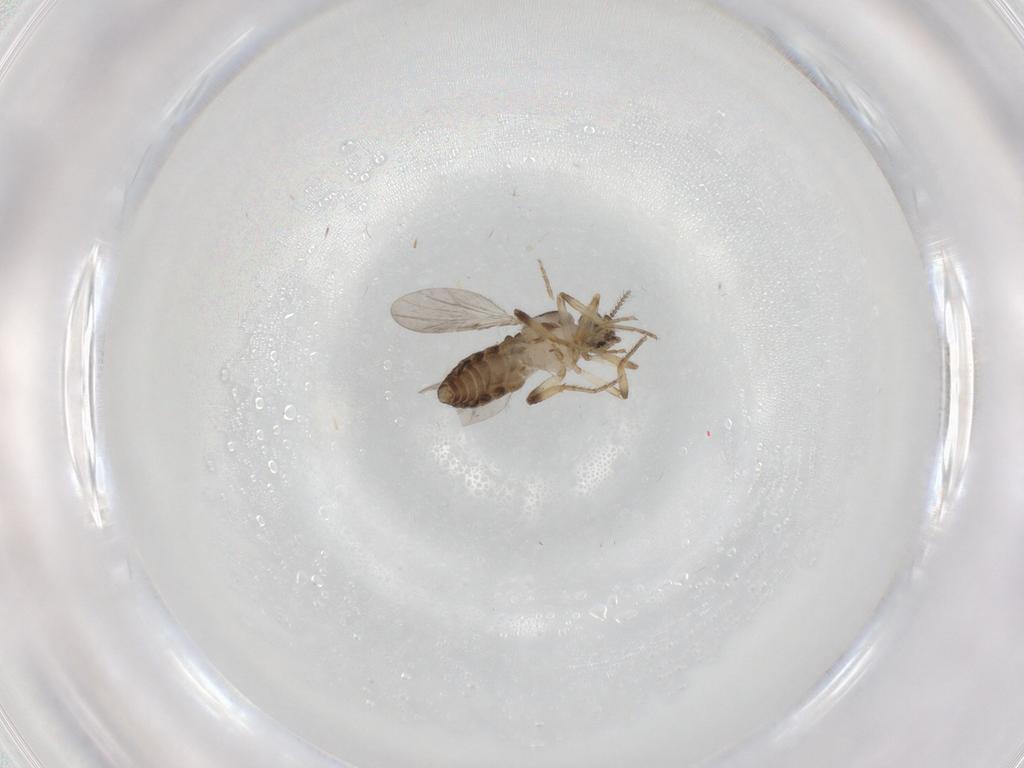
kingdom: Animalia
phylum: Arthropoda
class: Insecta
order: Diptera
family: Ceratopogonidae
